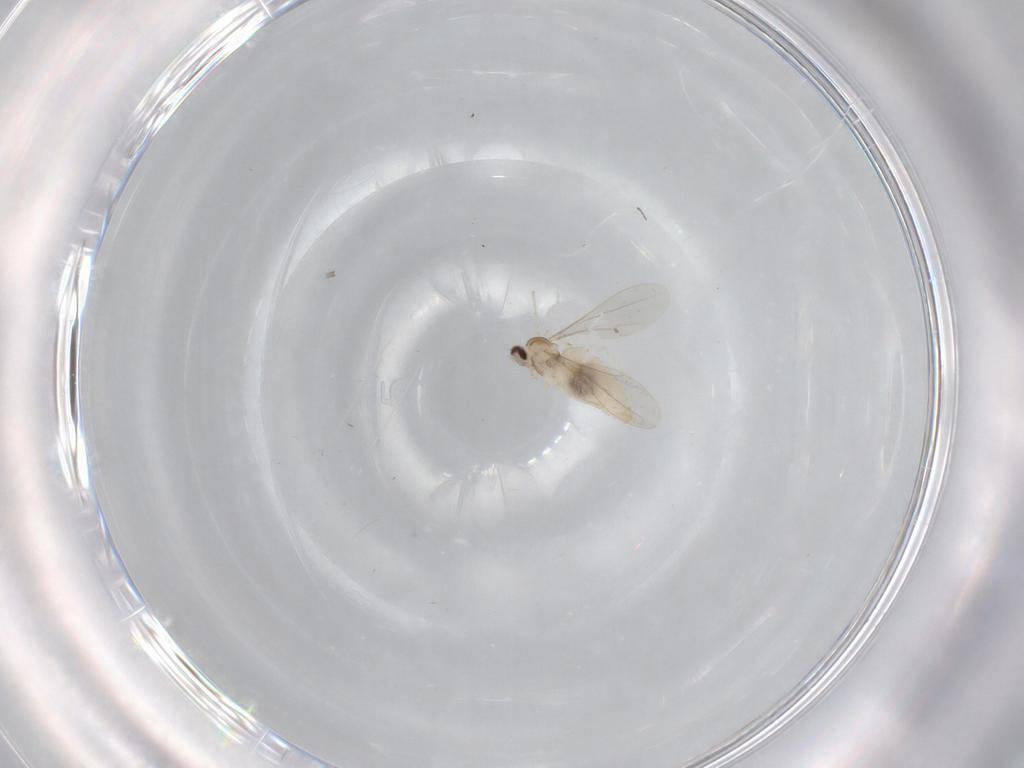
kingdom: Animalia
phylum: Arthropoda
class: Insecta
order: Diptera
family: Cecidomyiidae
